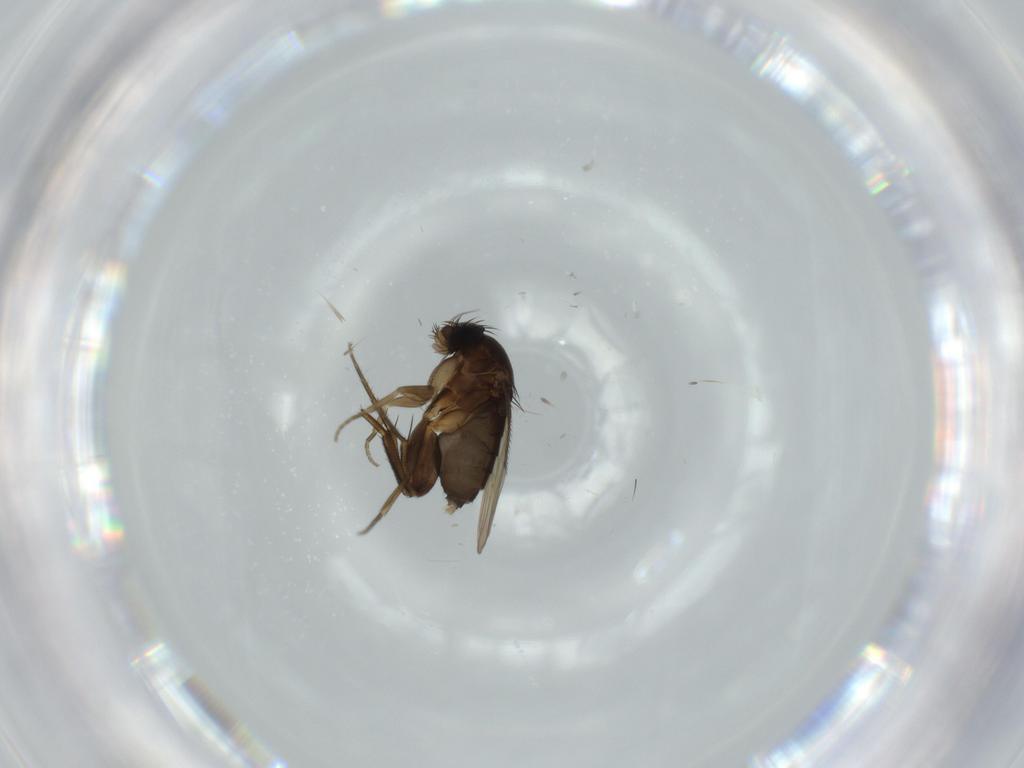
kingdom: Animalia
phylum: Arthropoda
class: Insecta
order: Diptera
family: Phoridae
